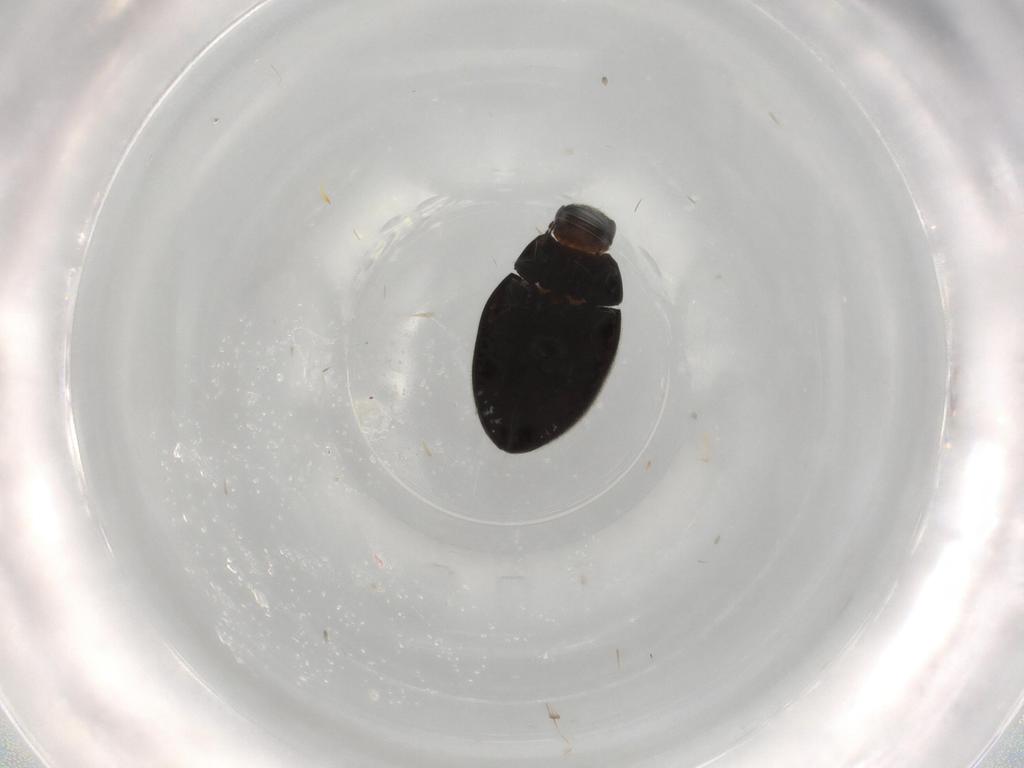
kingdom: Animalia
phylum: Arthropoda
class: Insecta
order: Coleoptera
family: Limnichidae
